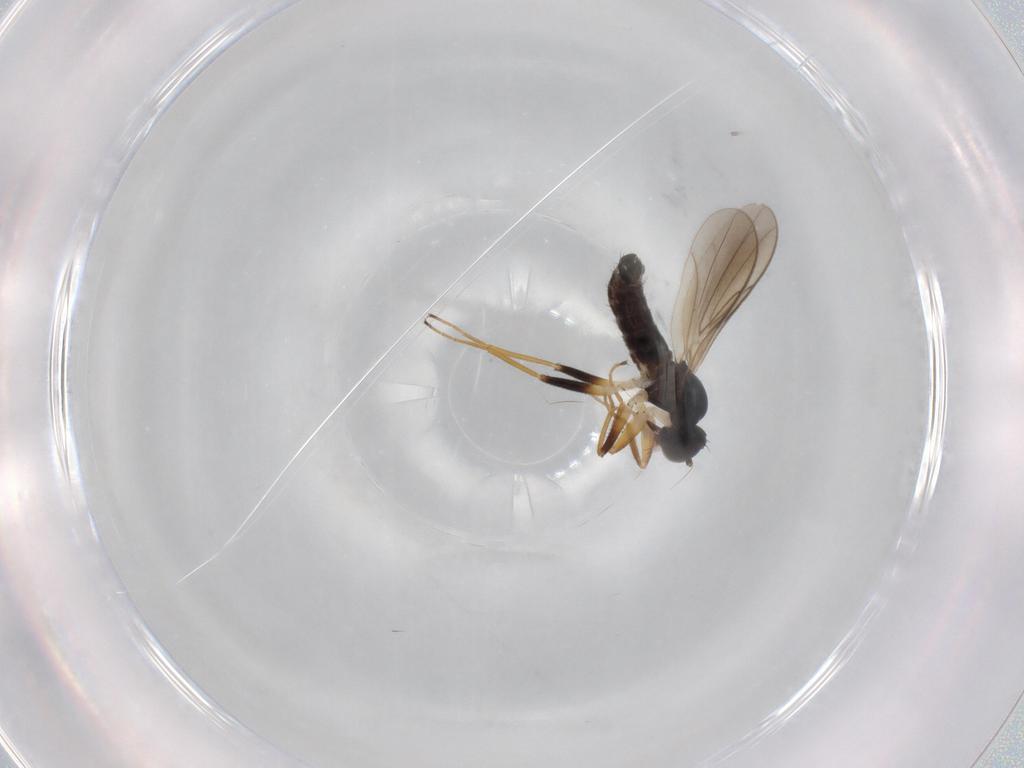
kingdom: Animalia
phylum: Arthropoda
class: Insecta
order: Diptera
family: Hybotidae
